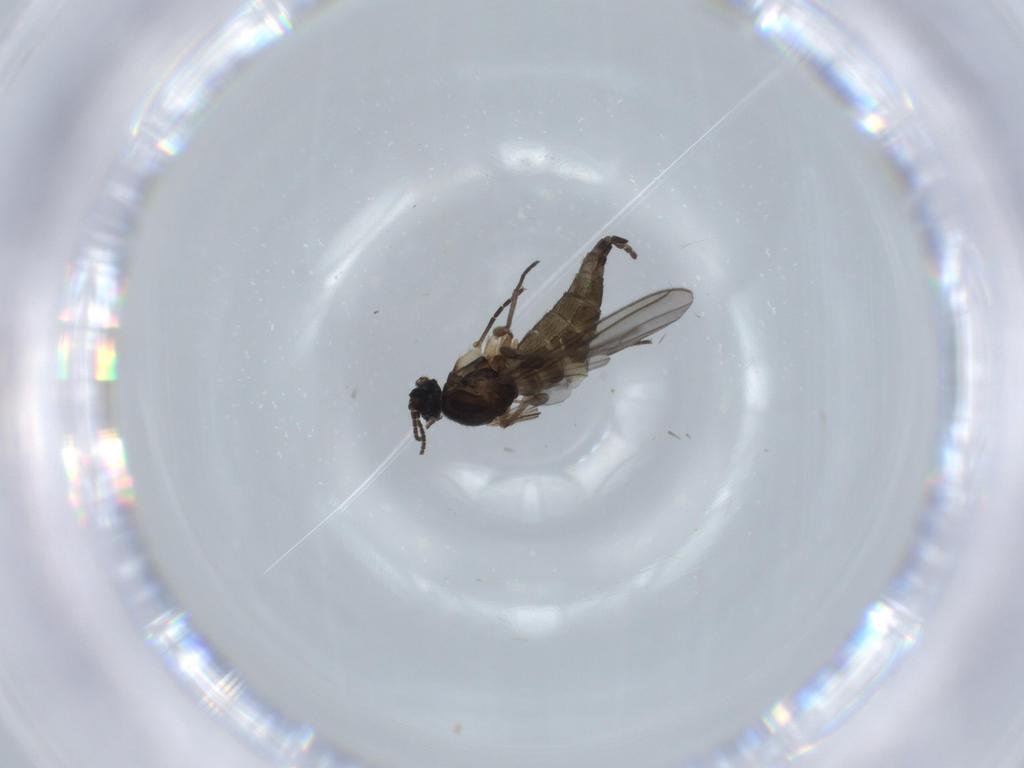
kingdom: Animalia
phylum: Arthropoda
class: Insecta
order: Diptera
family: Sciaridae
